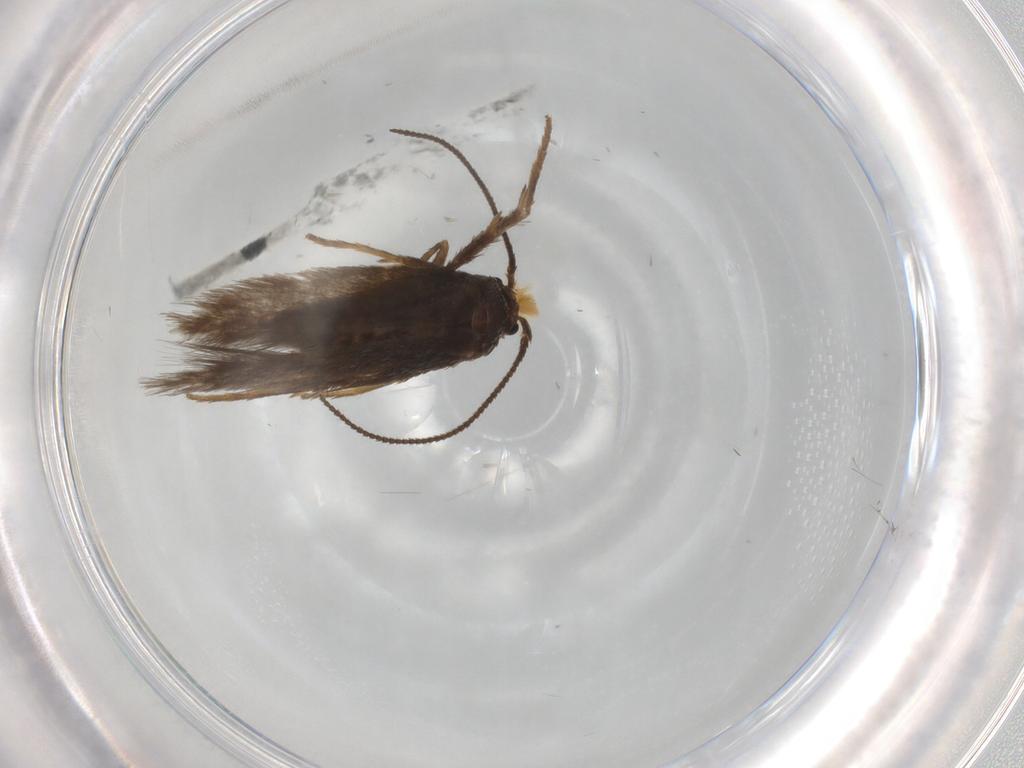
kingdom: Animalia
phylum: Arthropoda
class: Insecta
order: Lepidoptera
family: Nepticulidae
